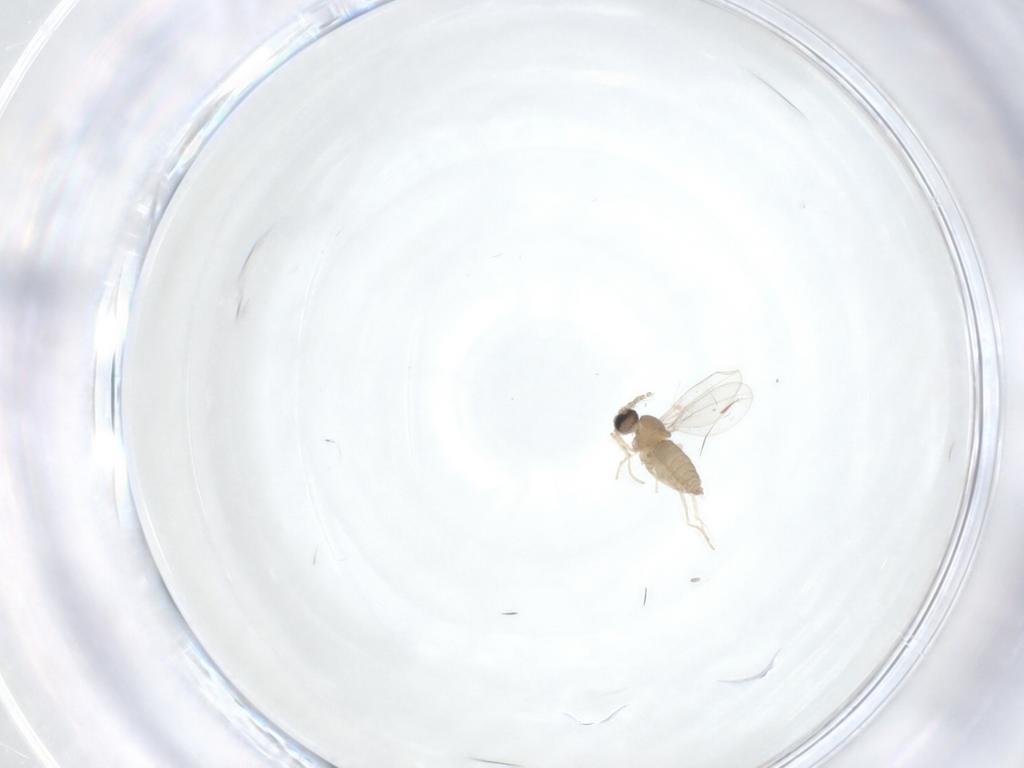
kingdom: Animalia
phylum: Arthropoda
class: Insecta
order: Diptera
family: Cecidomyiidae
